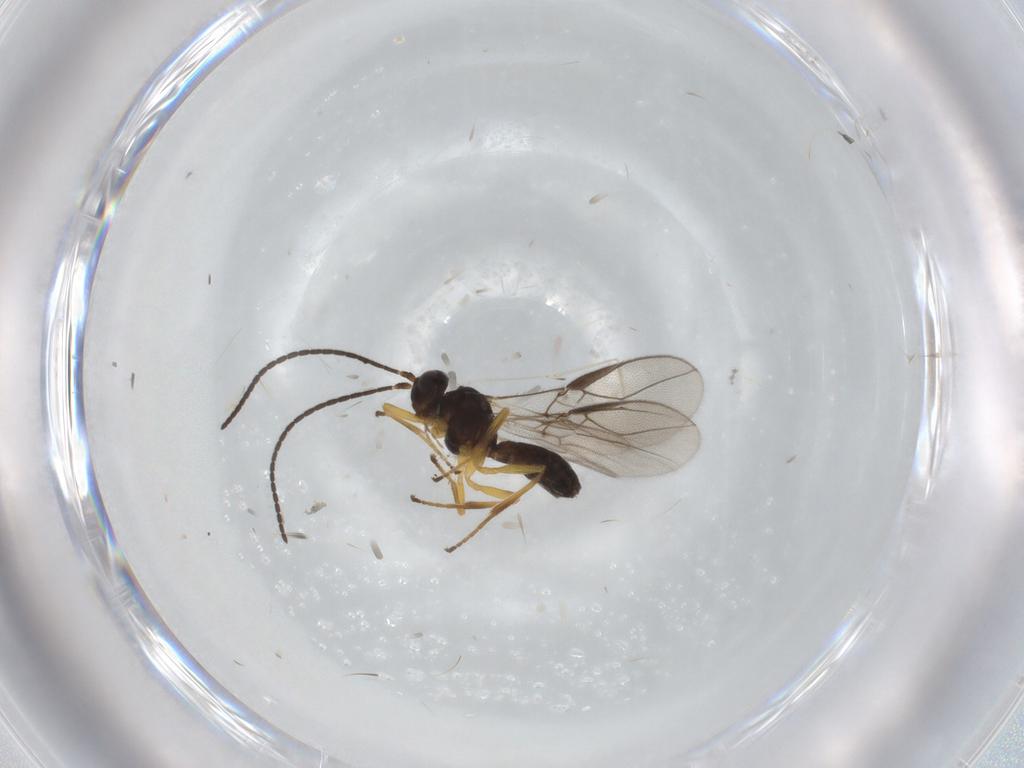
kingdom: Animalia
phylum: Arthropoda
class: Insecta
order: Hymenoptera
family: Braconidae
